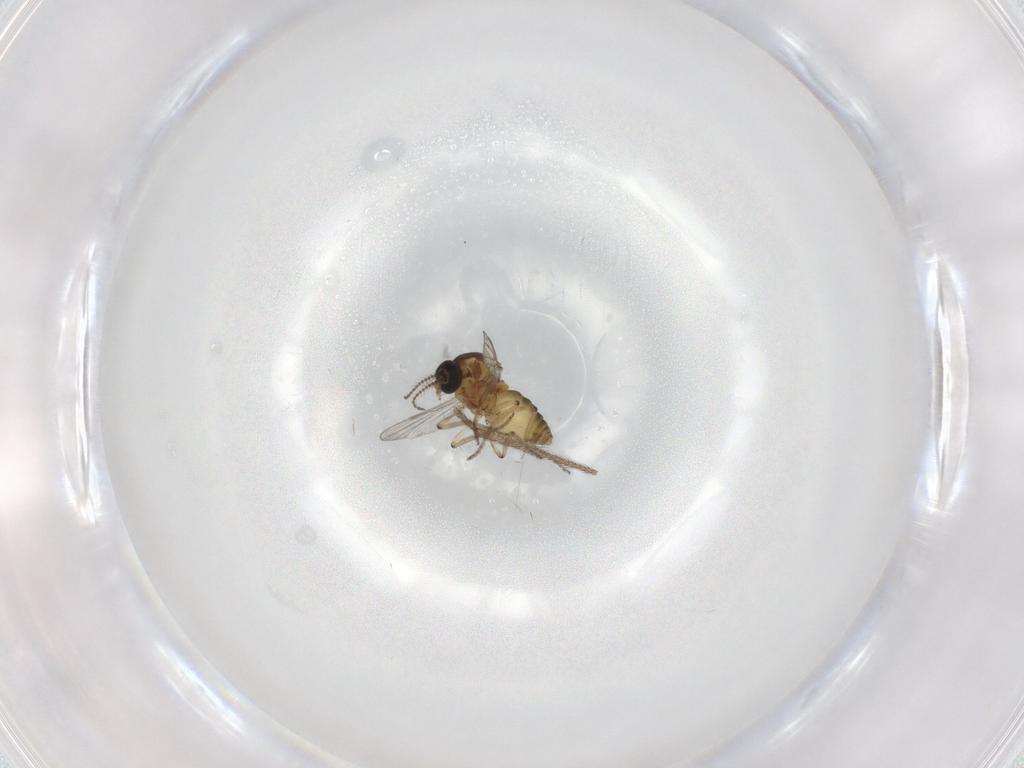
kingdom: Animalia
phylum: Arthropoda
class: Insecta
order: Diptera
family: Ceratopogonidae
